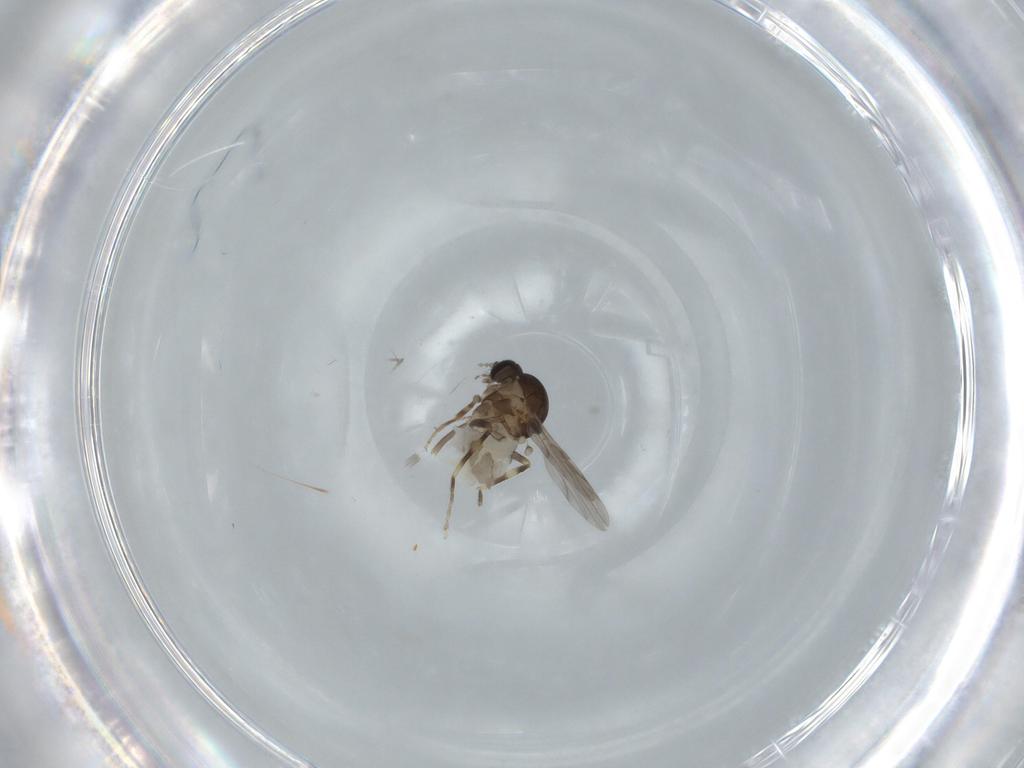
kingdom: Animalia
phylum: Arthropoda
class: Insecta
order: Diptera
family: Ceratopogonidae
